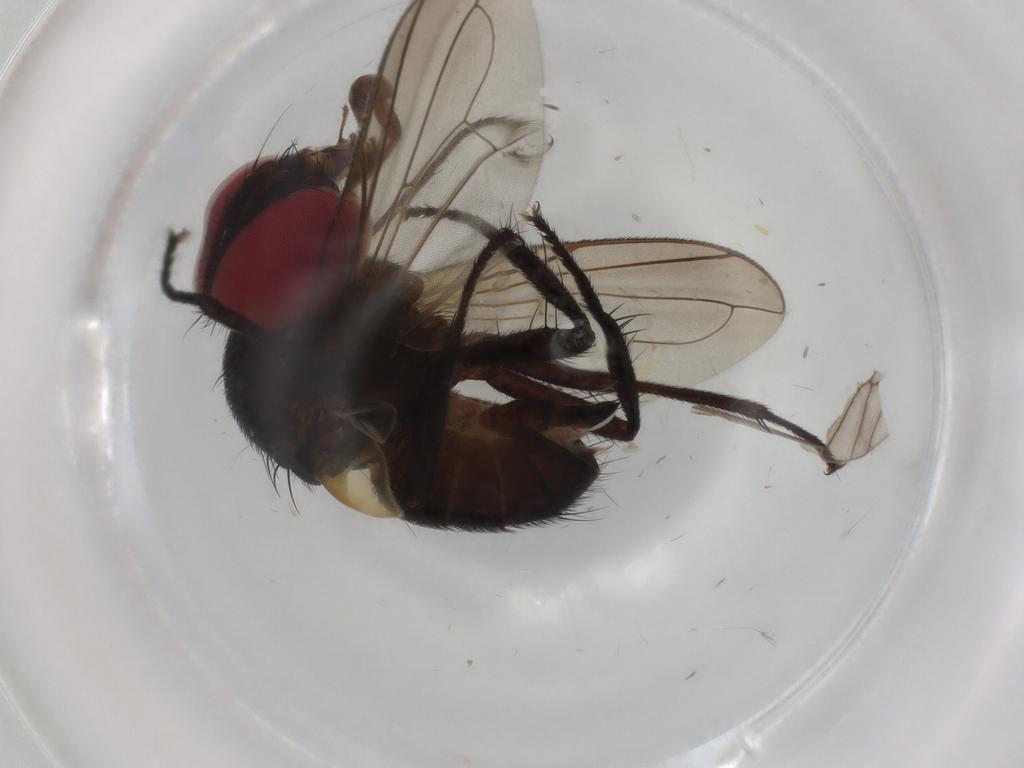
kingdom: Animalia
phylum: Arthropoda
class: Insecta
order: Diptera
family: Tachinidae
